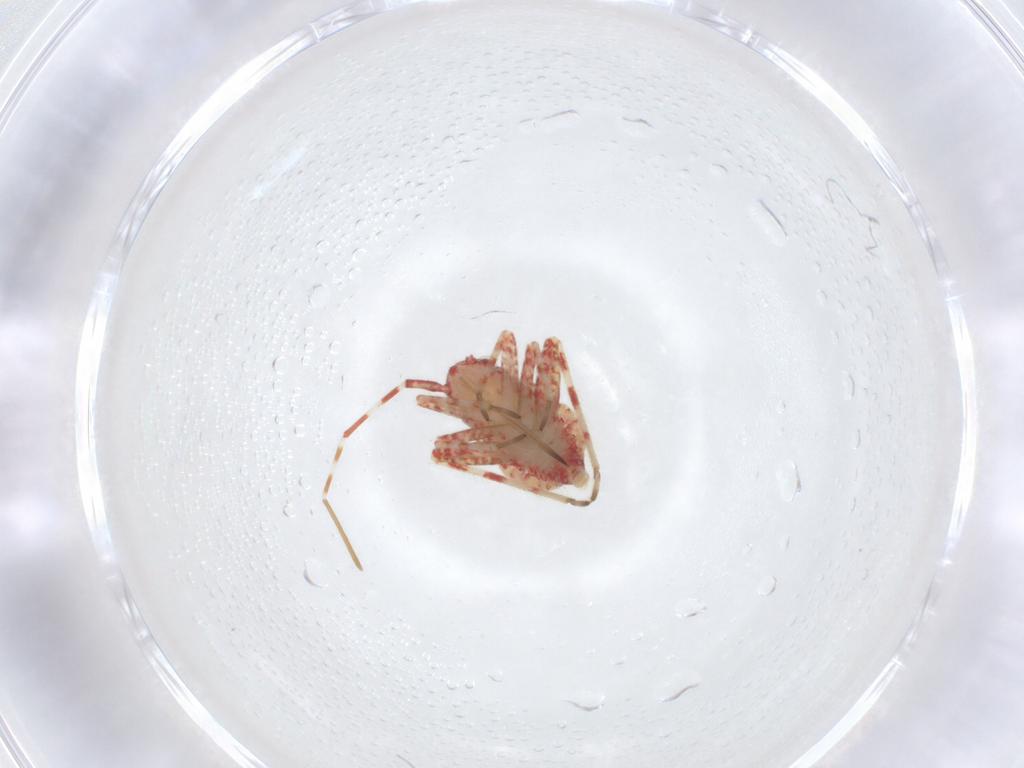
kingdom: Animalia
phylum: Arthropoda
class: Insecta
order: Hemiptera
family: Miridae
